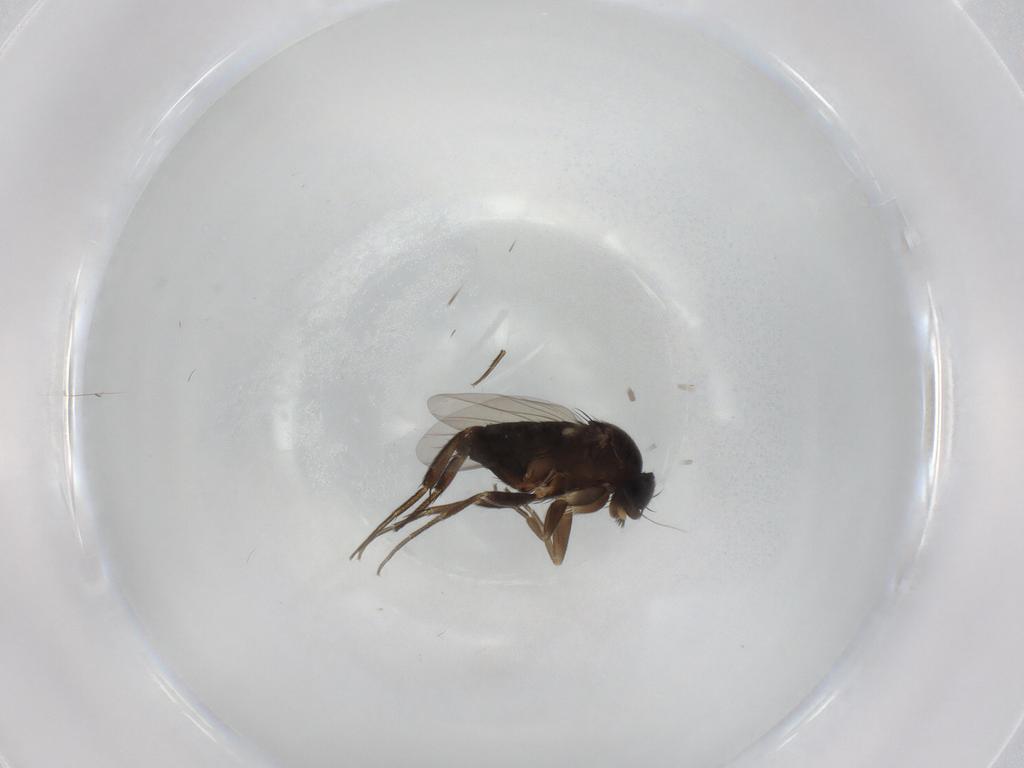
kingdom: Animalia
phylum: Arthropoda
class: Insecta
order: Diptera
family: Phoridae
